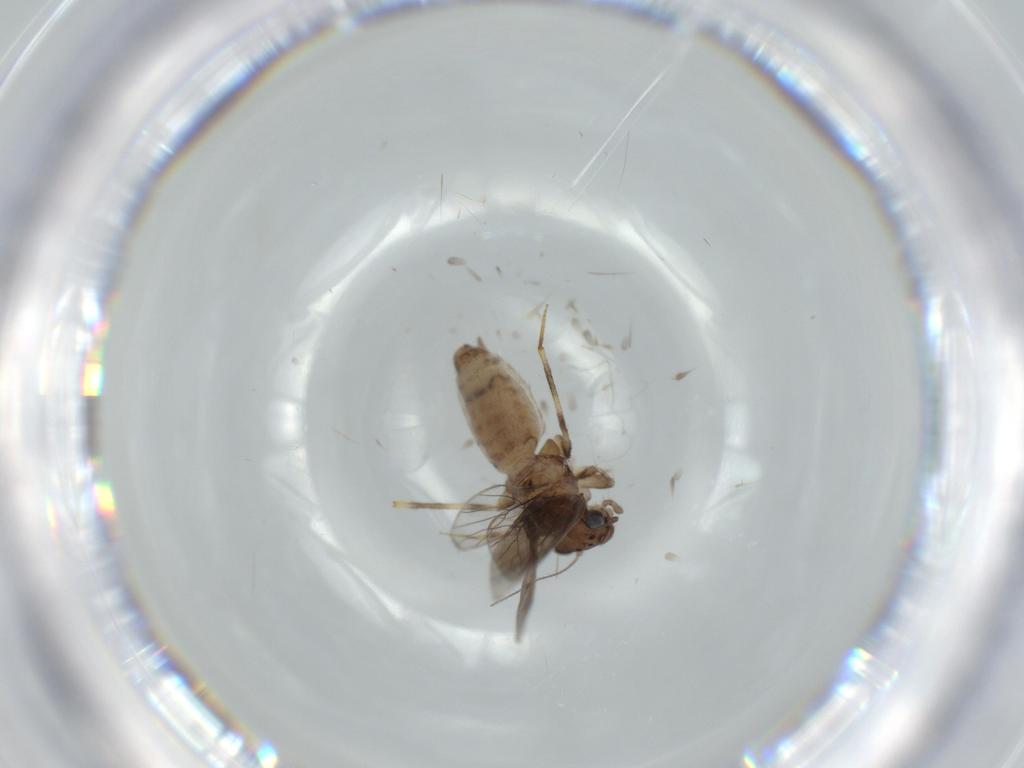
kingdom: Animalia
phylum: Arthropoda
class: Insecta
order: Psocodea
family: Lepidopsocidae
